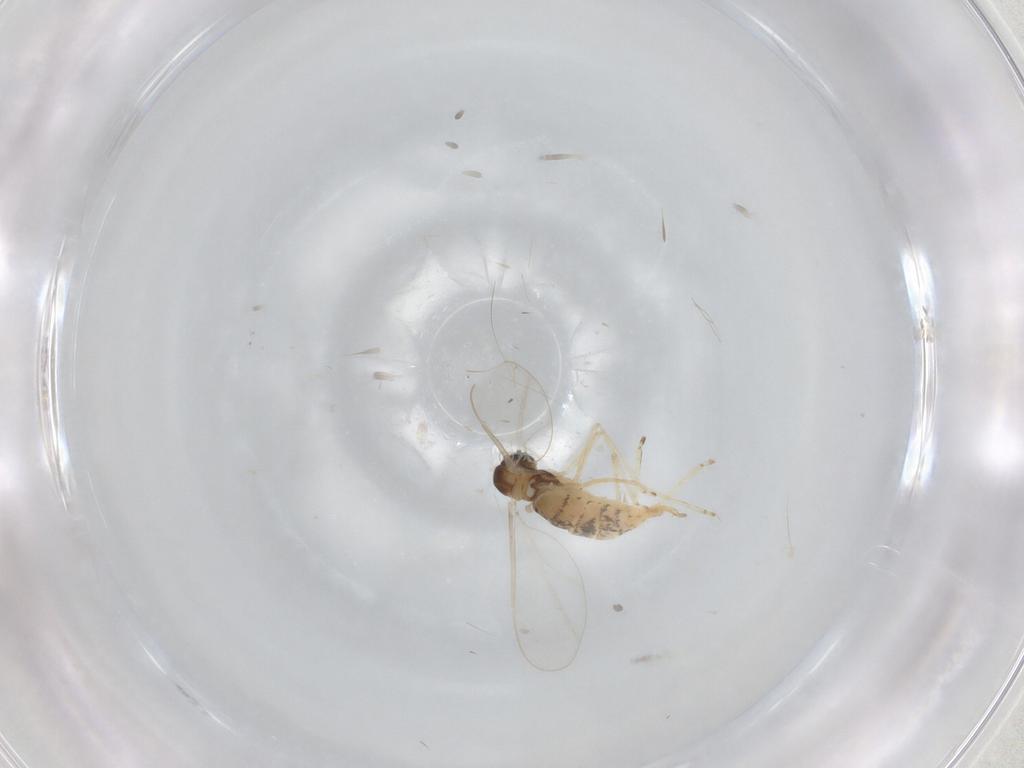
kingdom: Animalia
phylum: Arthropoda
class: Insecta
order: Diptera
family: Cecidomyiidae
